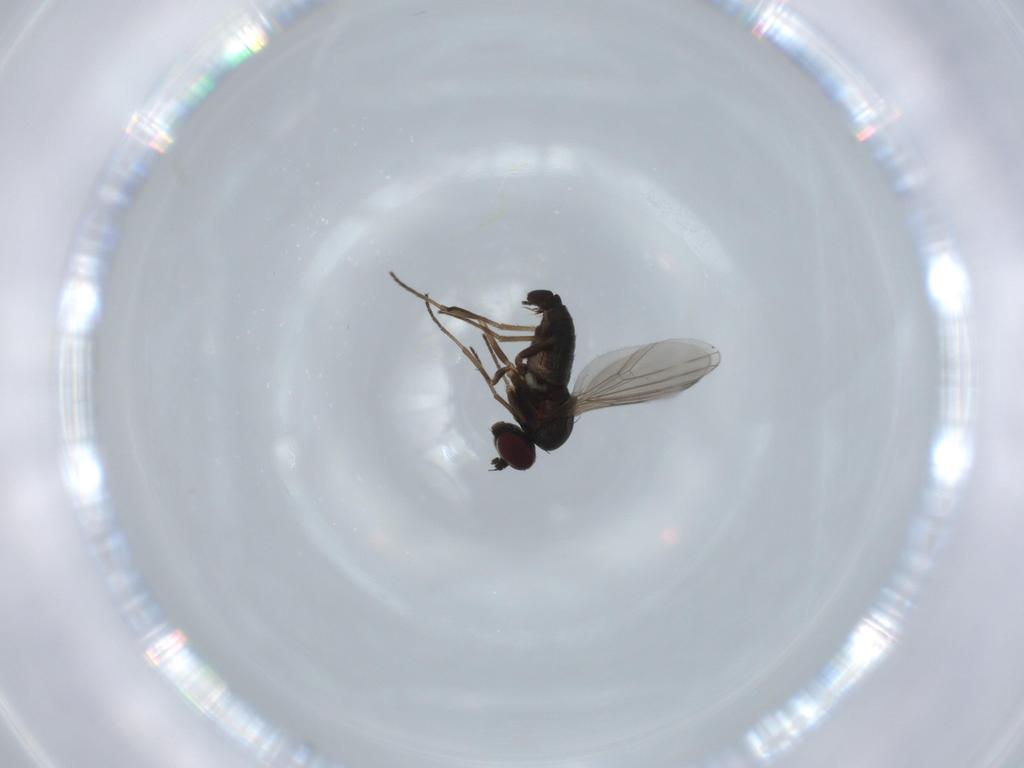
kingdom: Animalia
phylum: Arthropoda
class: Insecta
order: Diptera
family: Dolichopodidae
